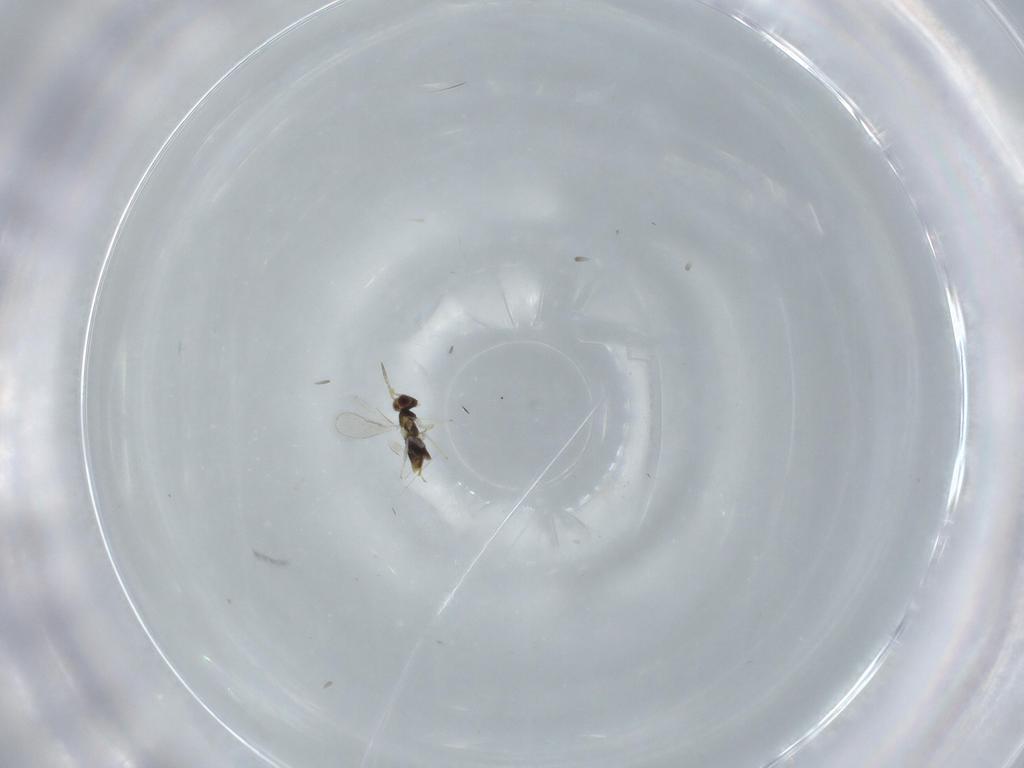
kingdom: Animalia
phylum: Arthropoda
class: Insecta
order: Hymenoptera
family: Aphelinidae
